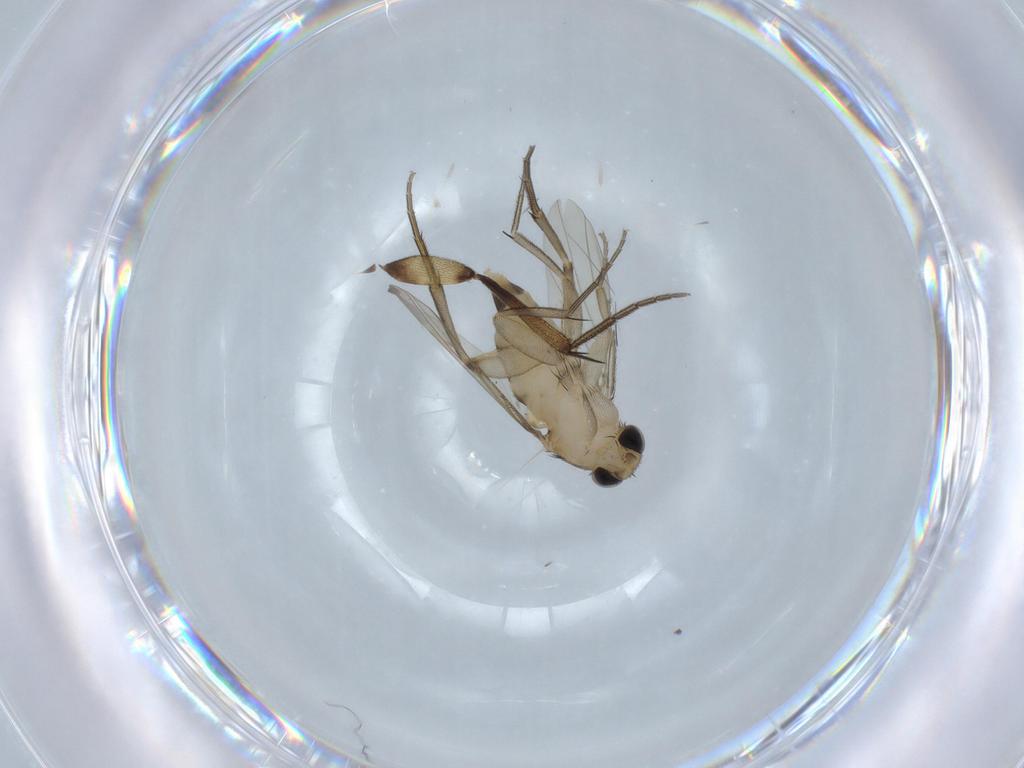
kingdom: Animalia
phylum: Arthropoda
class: Insecta
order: Diptera
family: Phoridae
